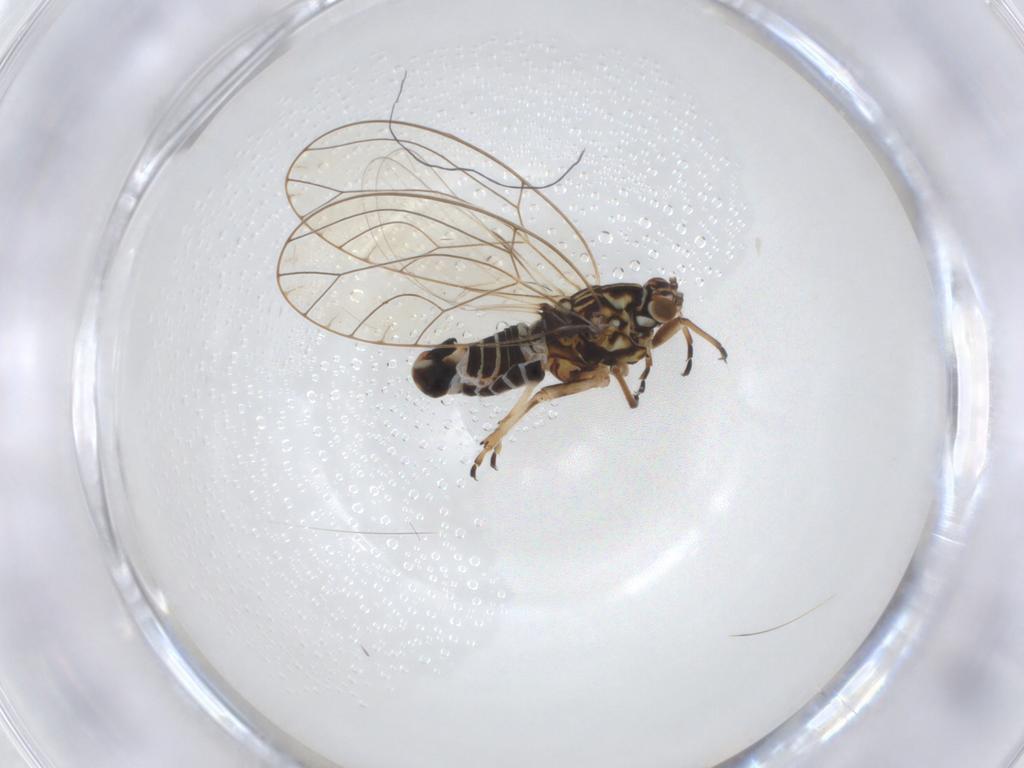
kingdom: Animalia
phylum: Arthropoda
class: Insecta
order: Hemiptera
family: Triozidae
